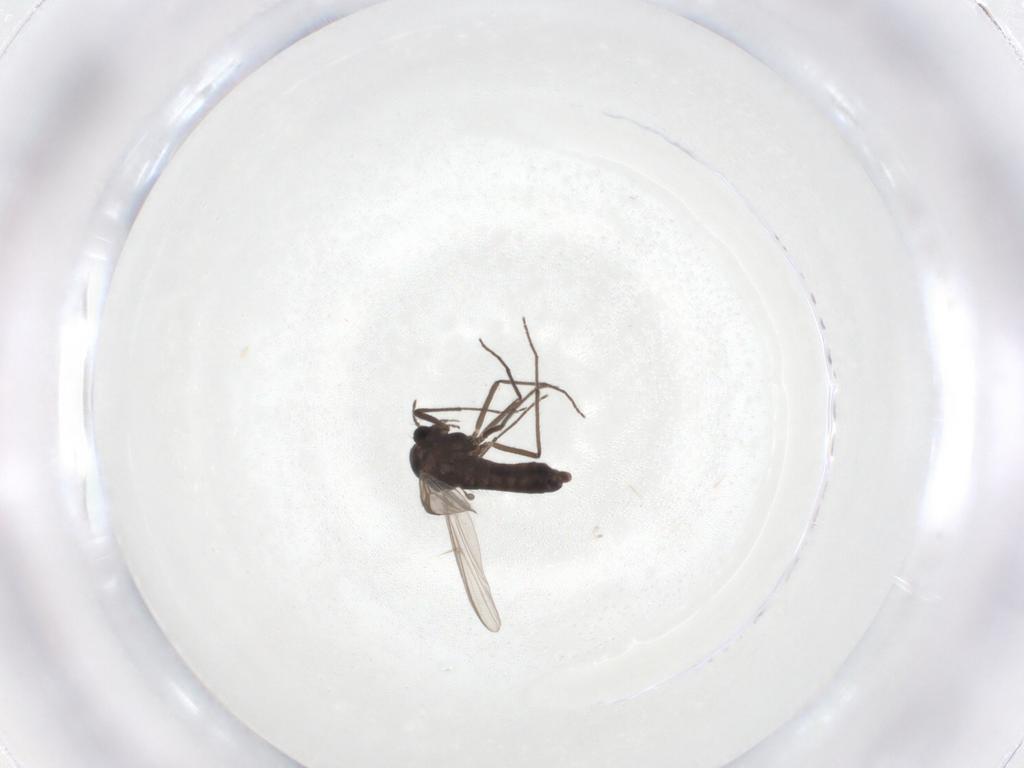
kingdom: Animalia
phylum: Arthropoda
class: Insecta
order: Diptera
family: Chironomidae
